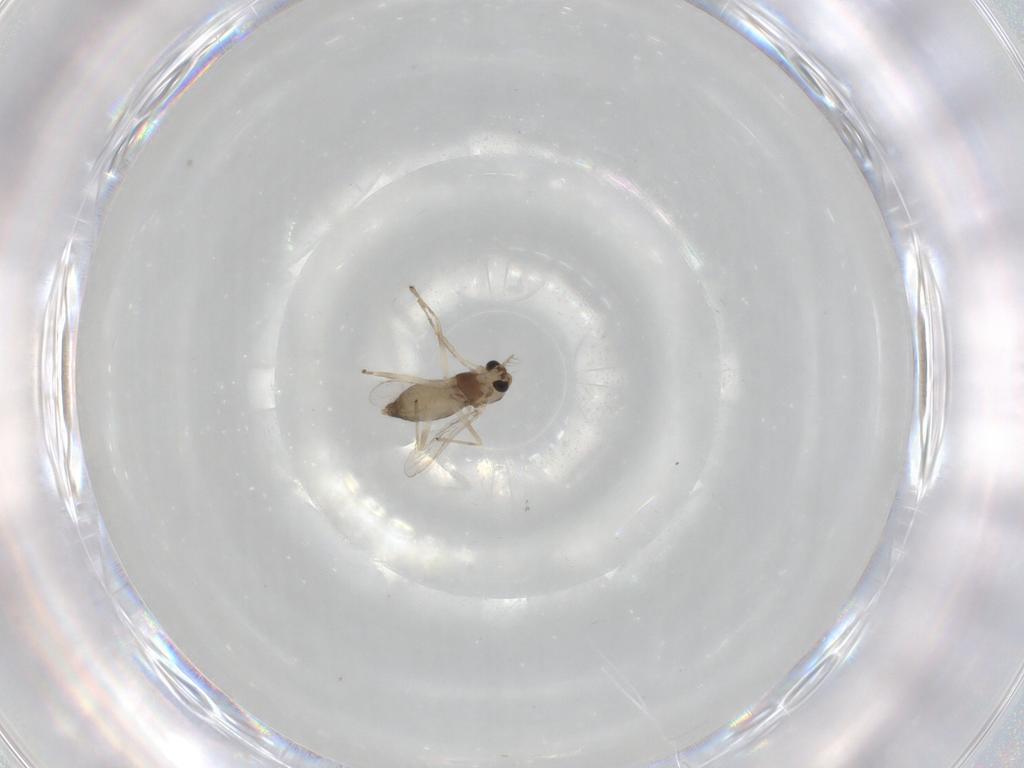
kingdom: Animalia
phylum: Arthropoda
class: Insecta
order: Diptera
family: Chironomidae
